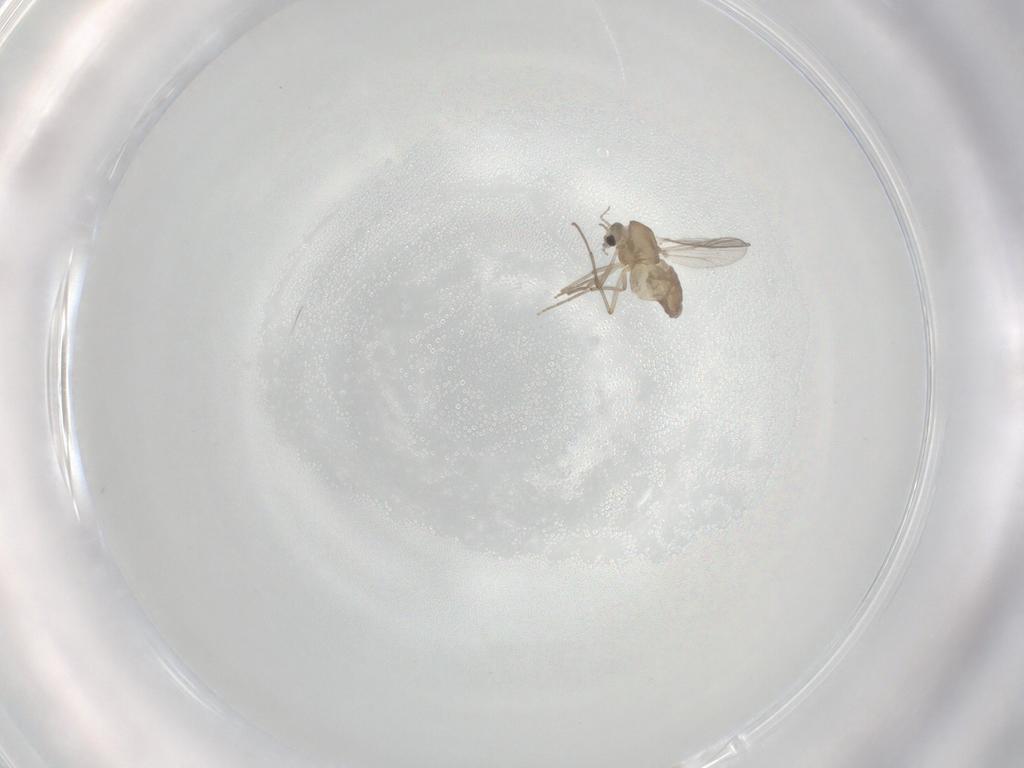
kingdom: Animalia
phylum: Arthropoda
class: Insecta
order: Diptera
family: Chironomidae
